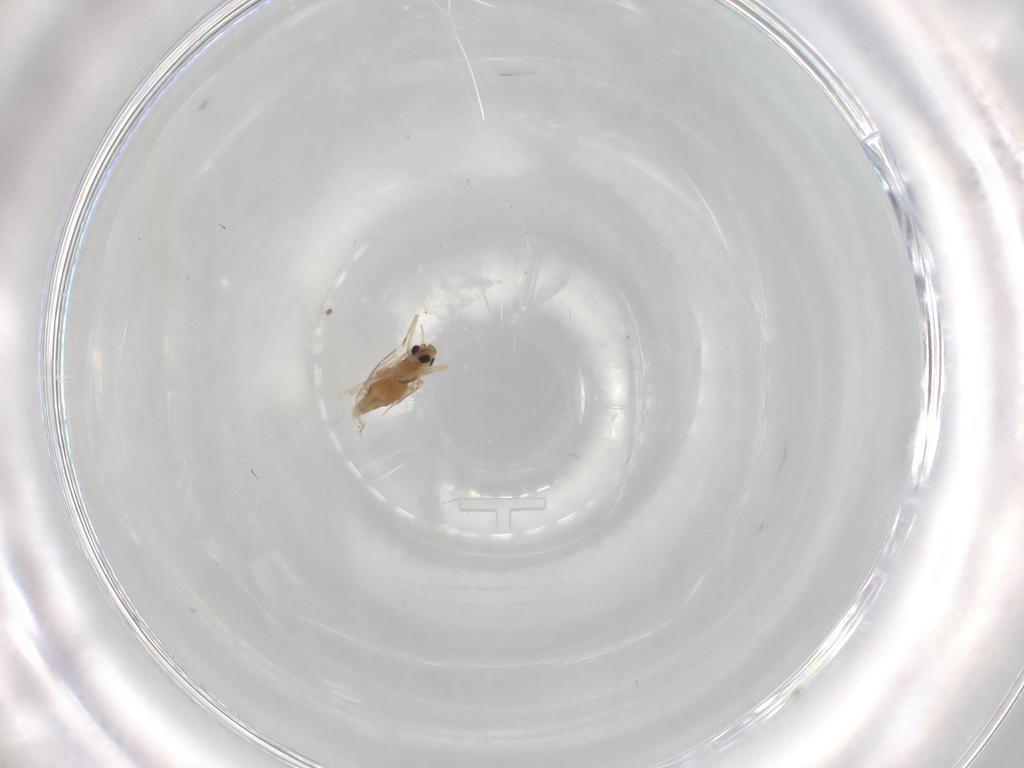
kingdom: Animalia
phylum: Arthropoda
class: Insecta
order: Diptera
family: Chironomidae
